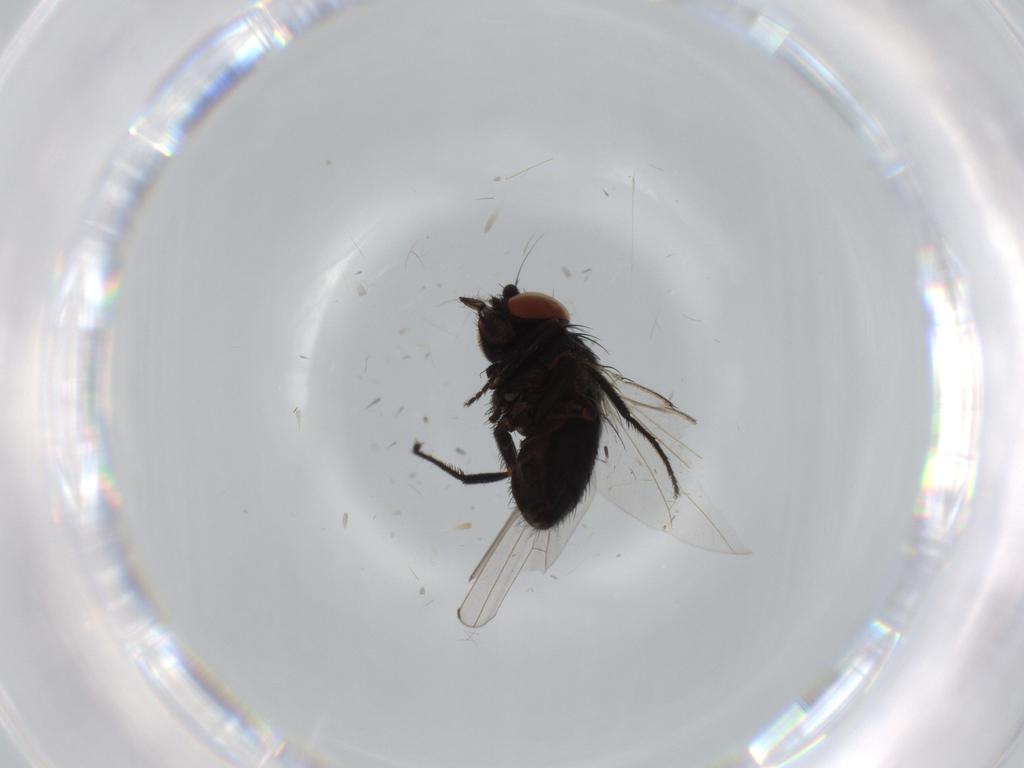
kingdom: Animalia
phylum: Arthropoda
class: Insecta
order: Diptera
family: Milichiidae
